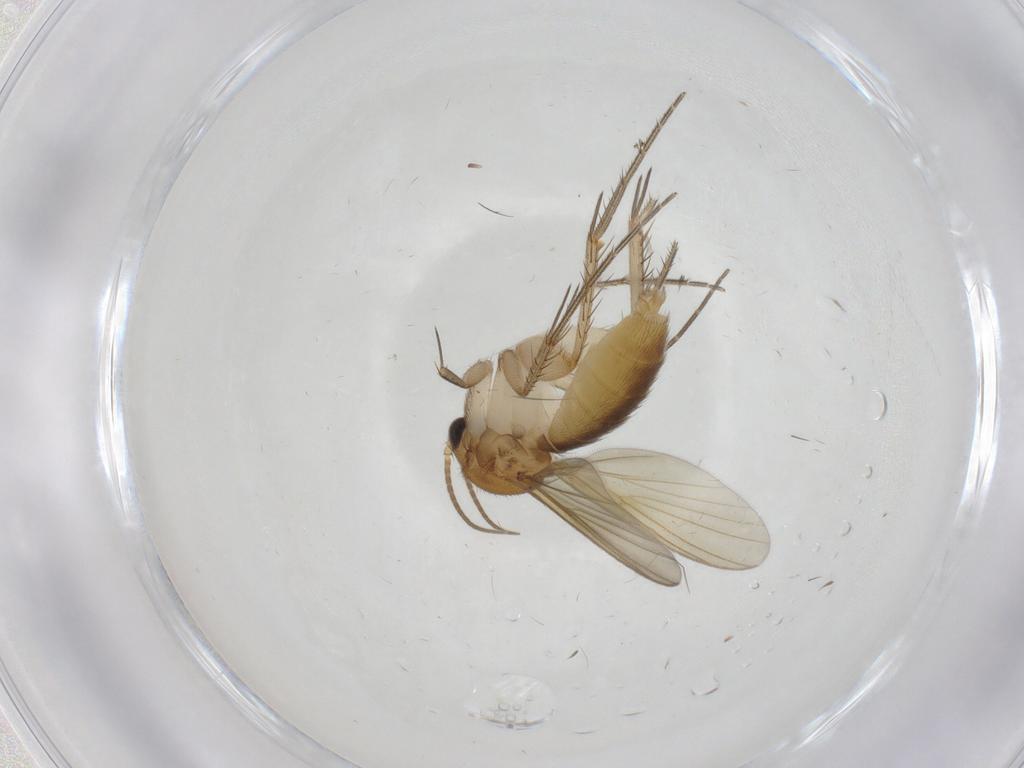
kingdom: Animalia
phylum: Arthropoda
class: Insecta
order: Diptera
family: Mycetophilidae
